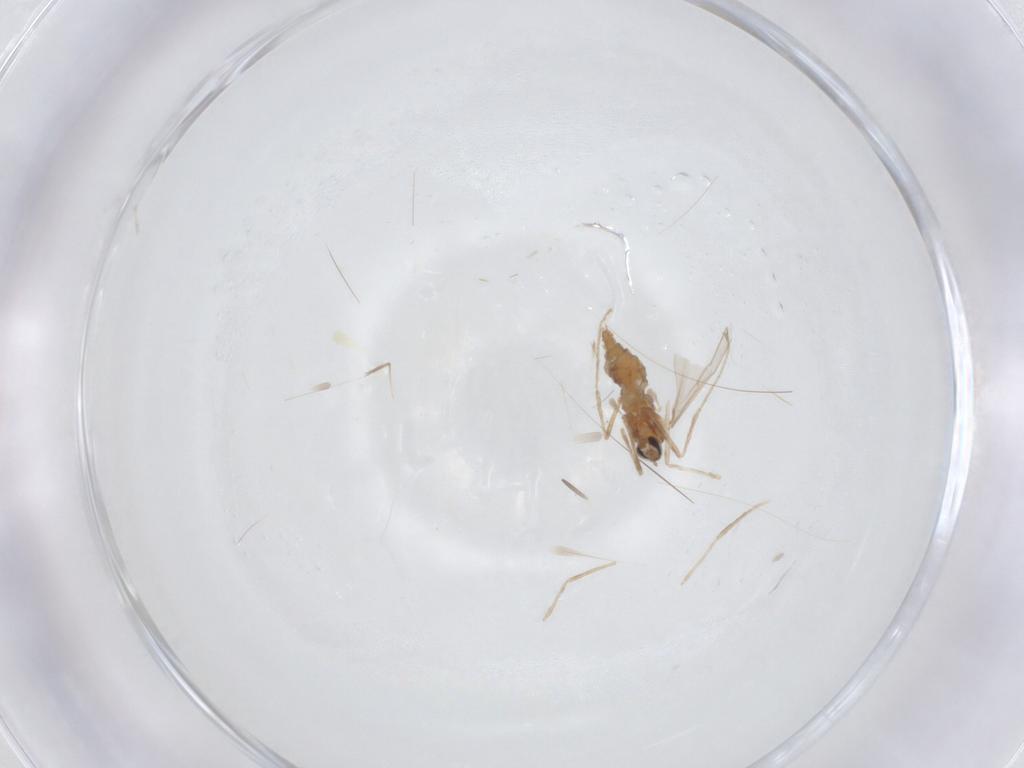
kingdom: Animalia
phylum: Arthropoda
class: Insecta
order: Diptera
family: Cecidomyiidae
